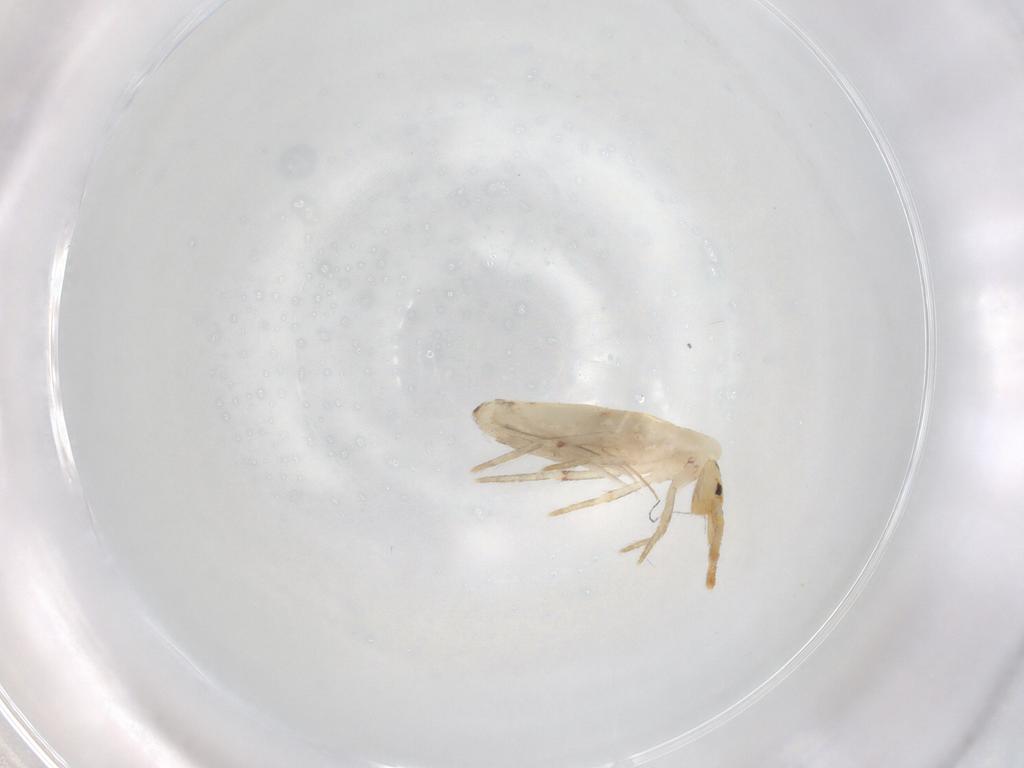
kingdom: Animalia
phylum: Arthropoda
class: Collembola
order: Poduromorpha
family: Hypogastruridae
